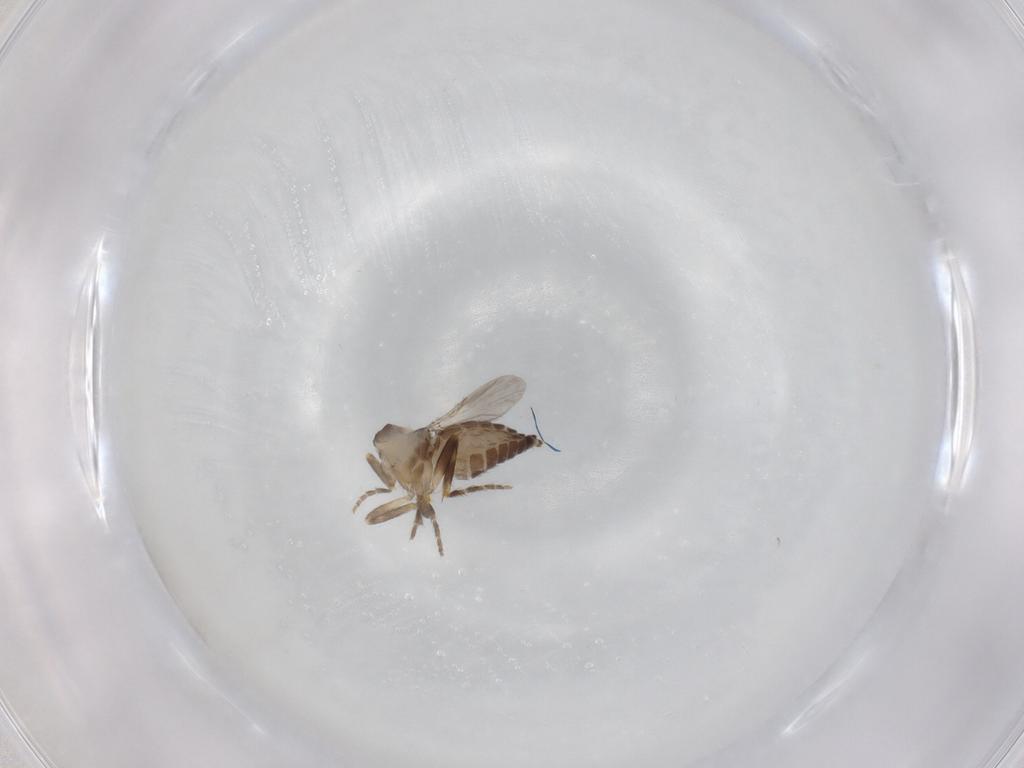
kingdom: Animalia
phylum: Arthropoda
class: Insecta
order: Diptera
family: Ceratopogonidae
